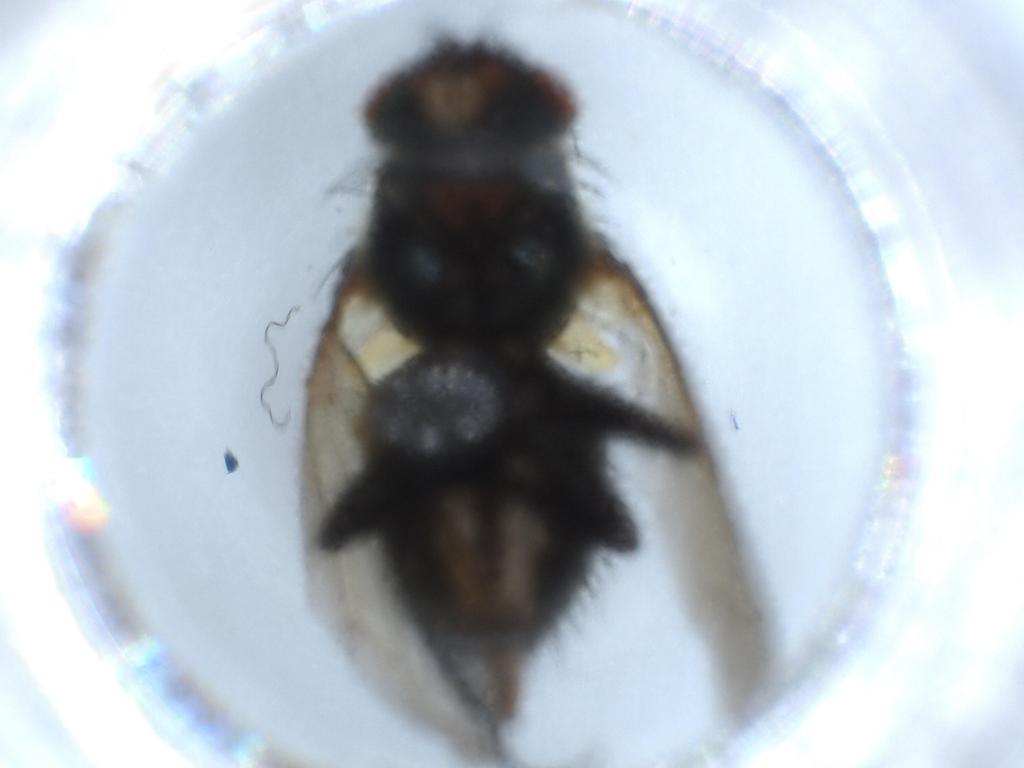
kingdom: Animalia
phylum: Arthropoda
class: Insecta
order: Diptera
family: Polleniidae
